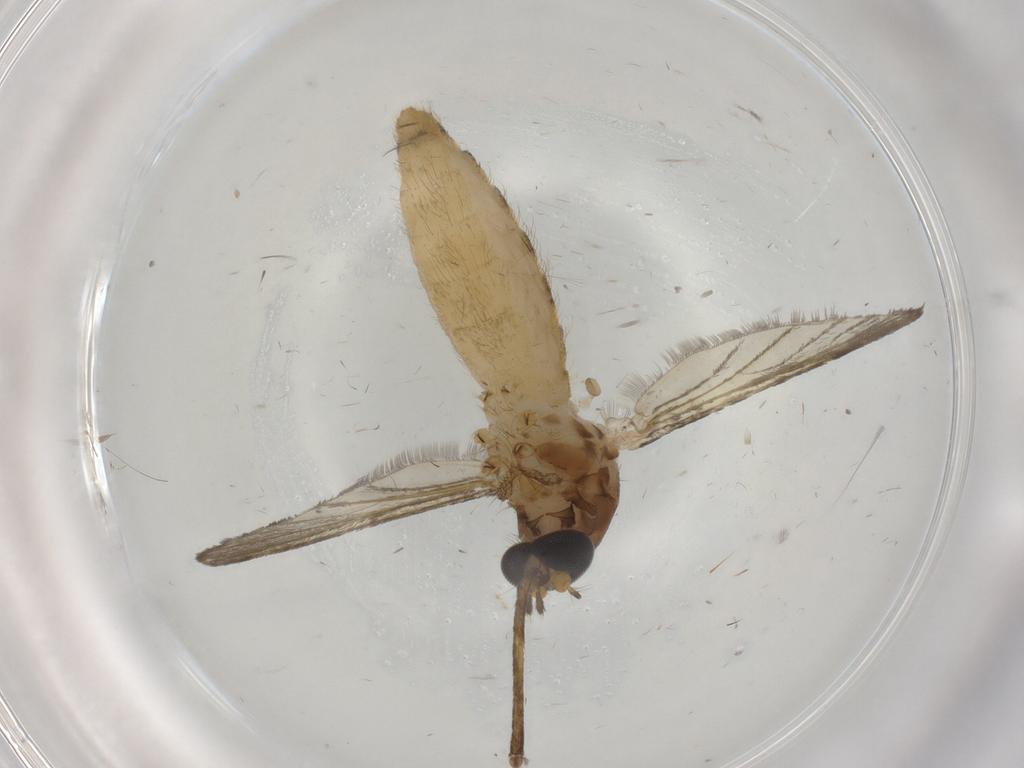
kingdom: Animalia
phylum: Arthropoda
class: Insecta
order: Diptera
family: Culicidae
